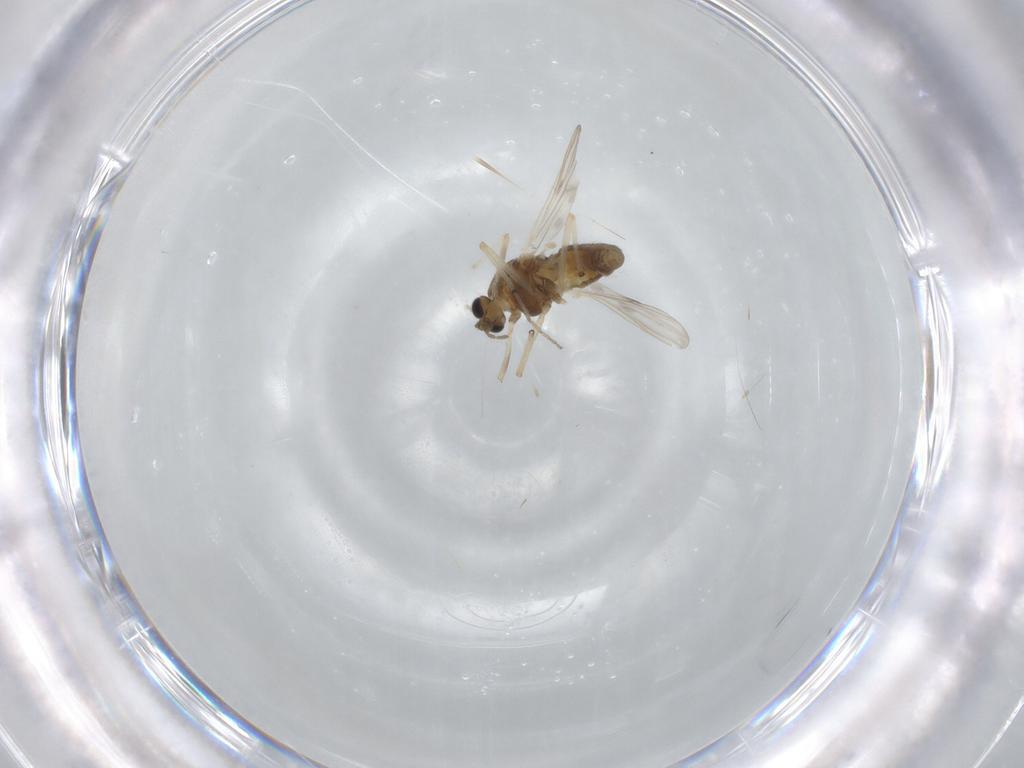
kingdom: Animalia
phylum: Arthropoda
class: Insecta
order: Diptera
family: Chironomidae
